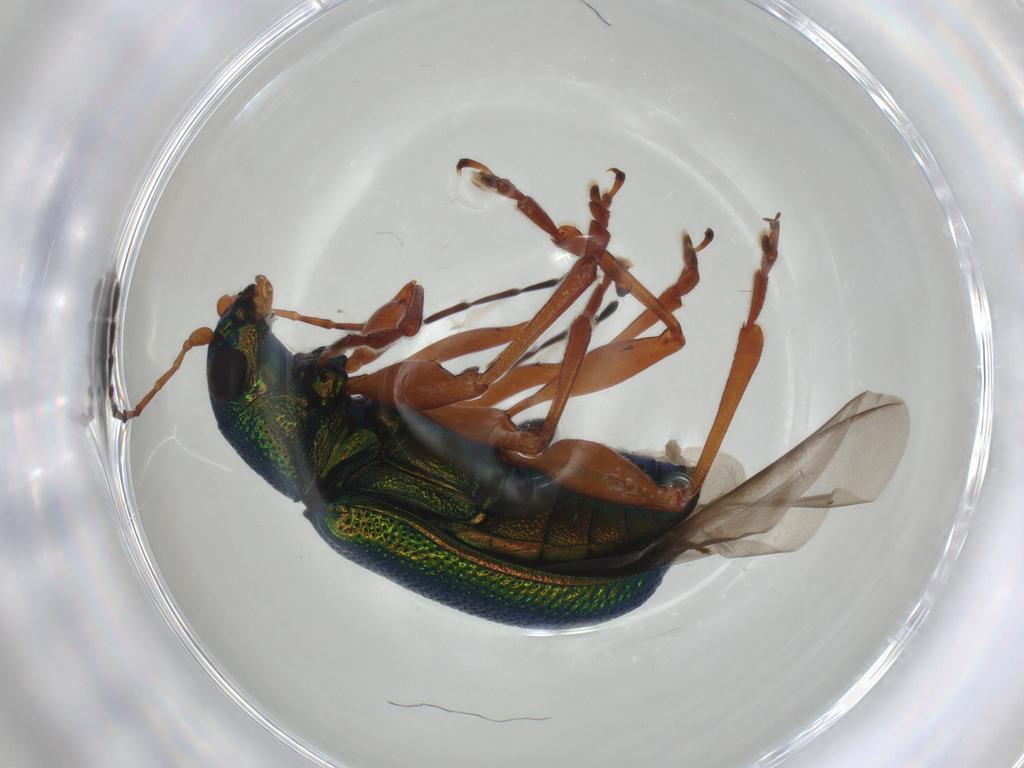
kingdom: Animalia
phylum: Arthropoda
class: Insecta
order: Coleoptera
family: Chrysomelidae
